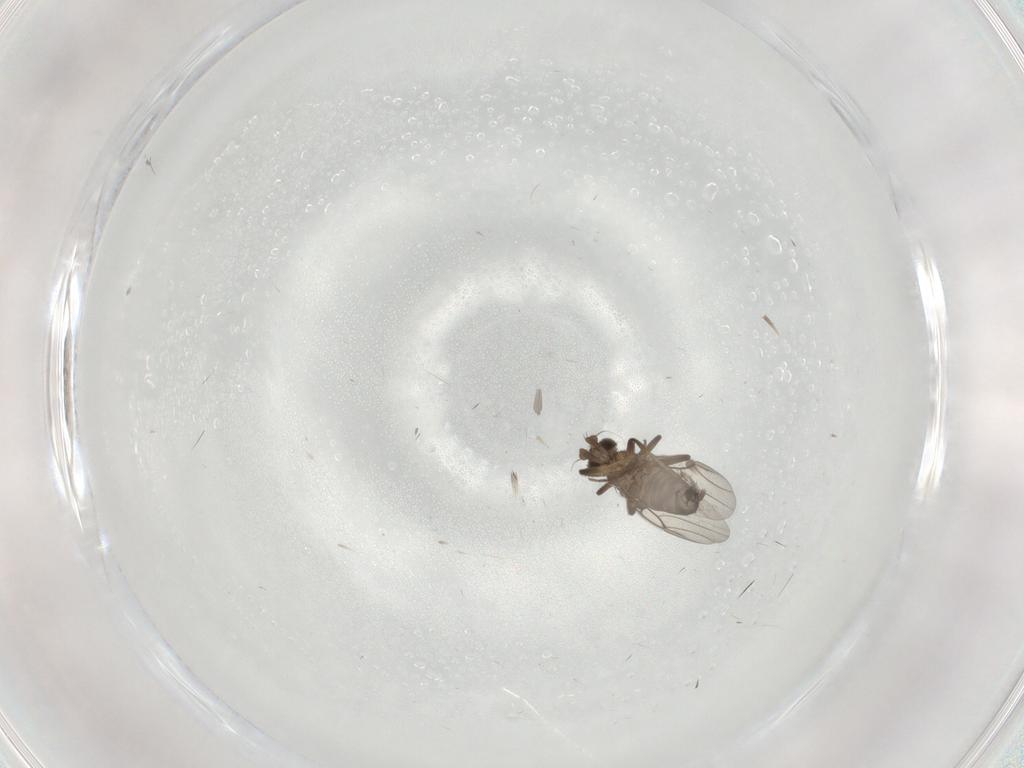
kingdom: Animalia
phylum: Arthropoda
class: Insecta
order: Diptera
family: Phoridae
